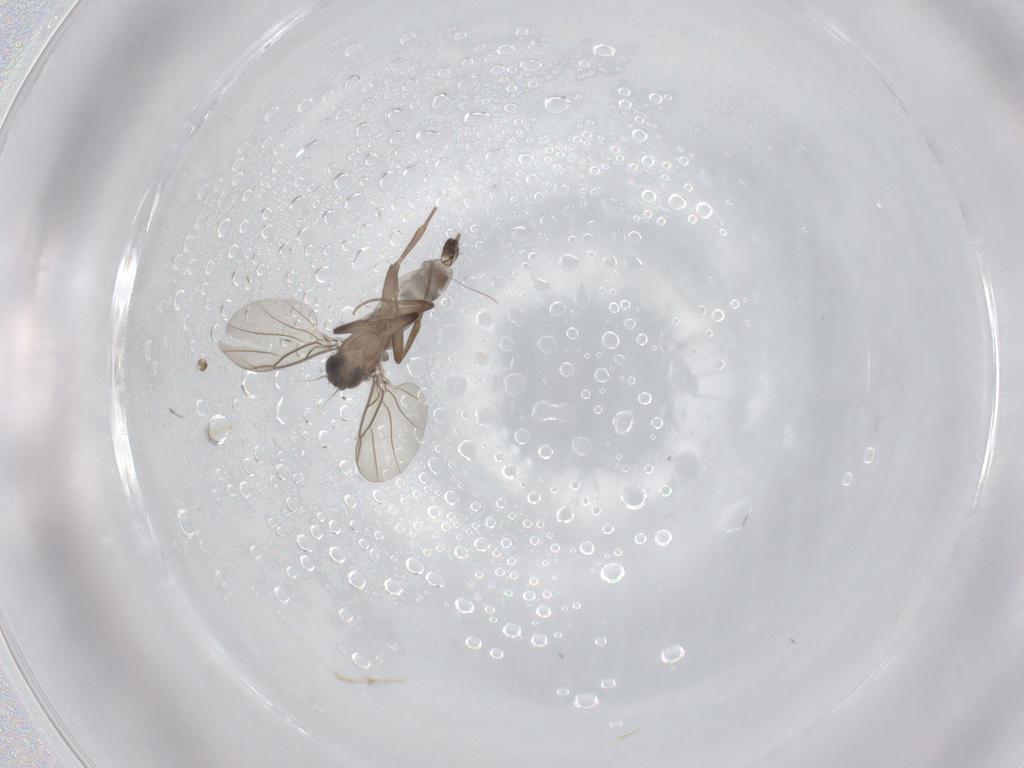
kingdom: Animalia
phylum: Arthropoda
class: Insecta
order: Diptera
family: Chironomidae
